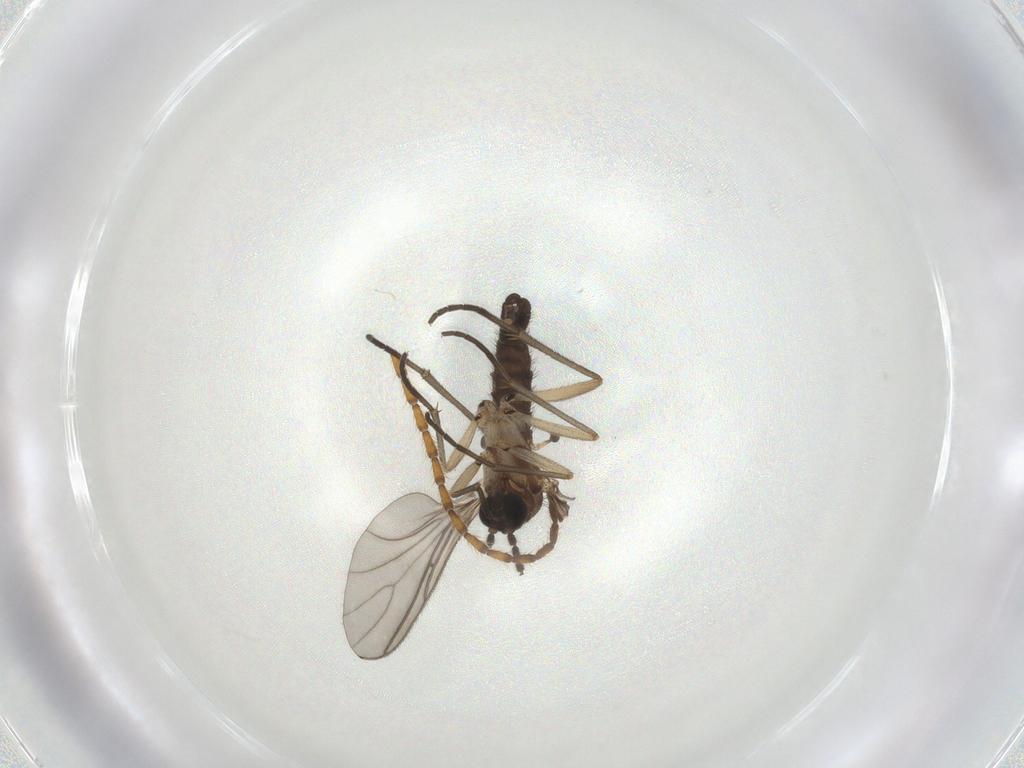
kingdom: Animalia
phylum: Arthropoda
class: Insecta
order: Diptera
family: Sciaridae
